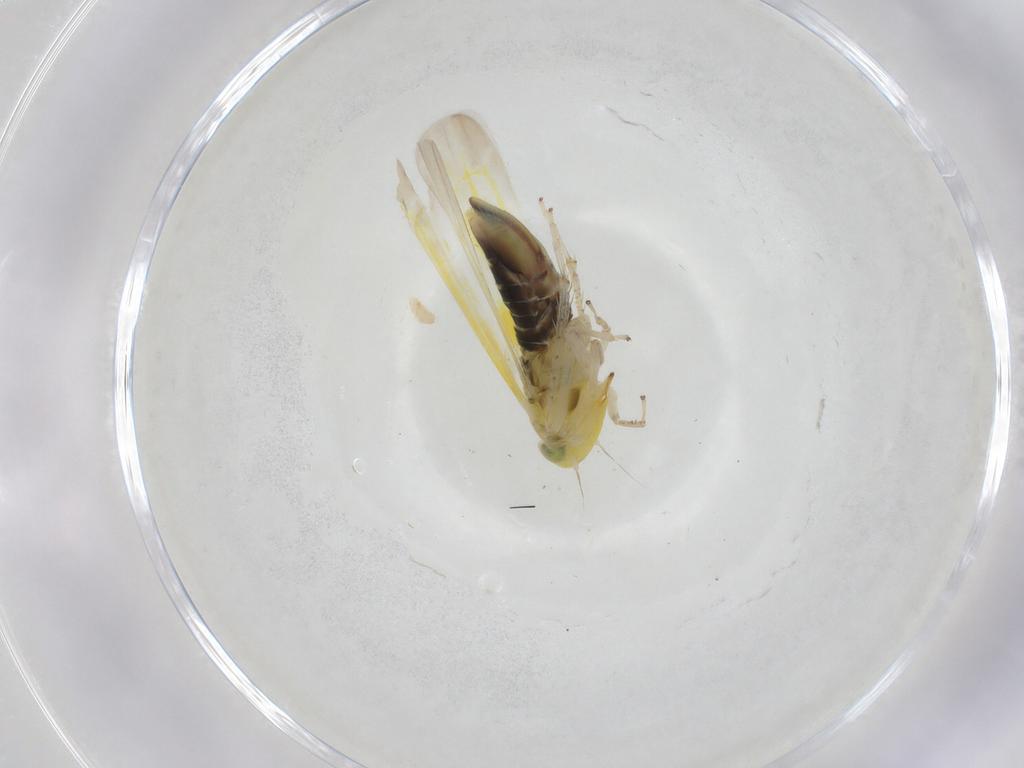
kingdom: Animalia
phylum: Arthropoda
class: Insecta
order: Hemiptera
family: Cicadellidae
